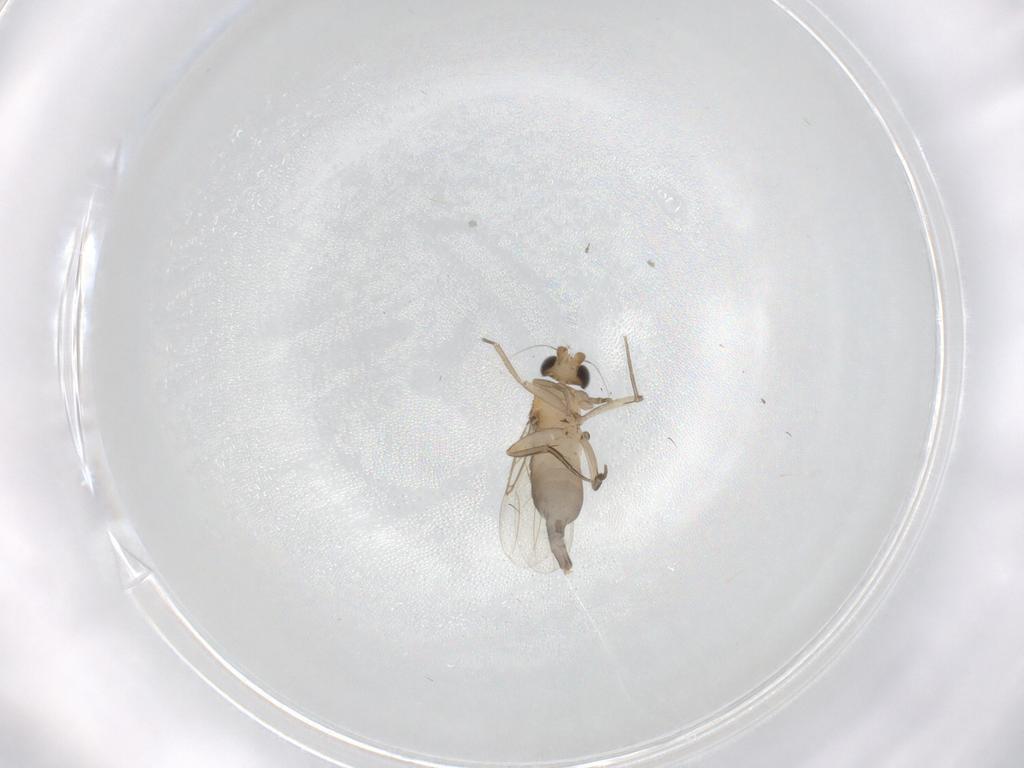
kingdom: Animalia
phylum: Arthropoda
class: Insecta
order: Diptera
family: Phoridae
